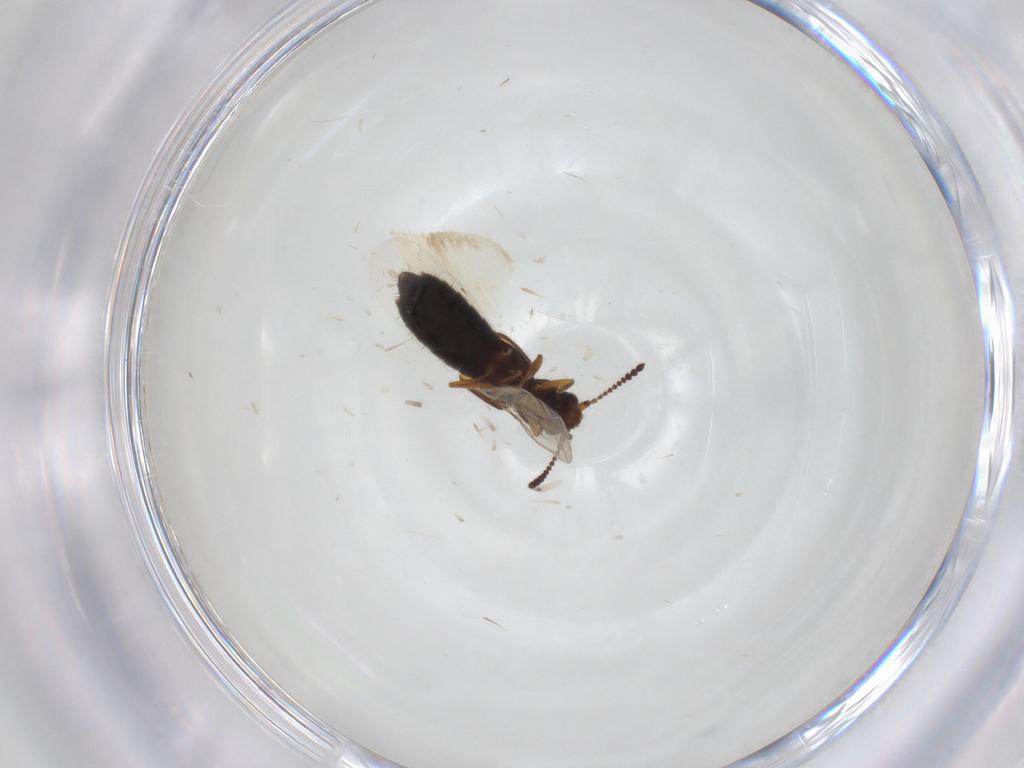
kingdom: Animalia
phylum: Arthropoda
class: Insecta
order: Coleoptera
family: Staphylinidae
